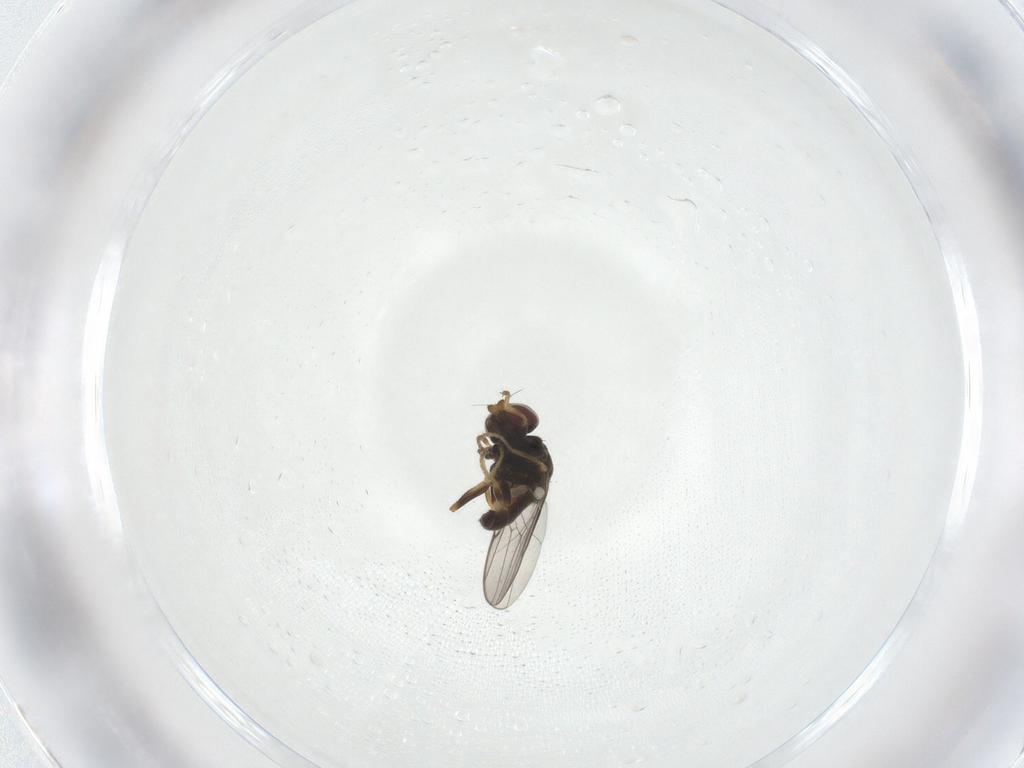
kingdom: Animalia
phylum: Arthropoda
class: Insecta
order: Diptera
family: Chloropidae
